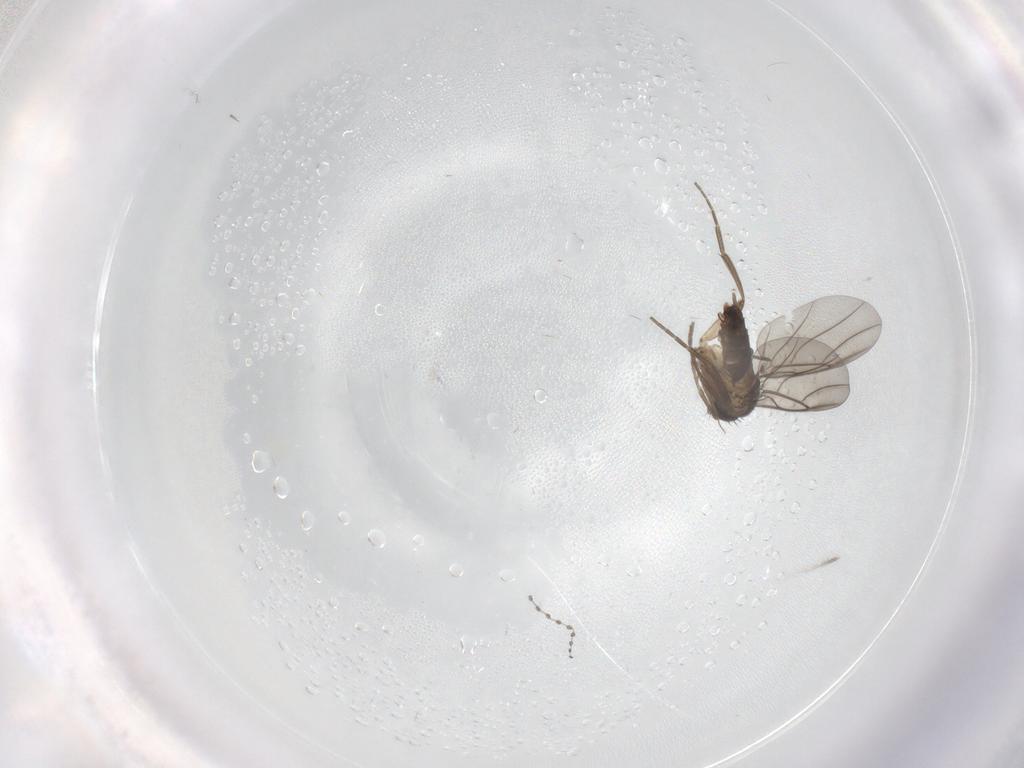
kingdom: Animalia
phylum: Arthropoda
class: Insecta
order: Diptera
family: Phoridae
